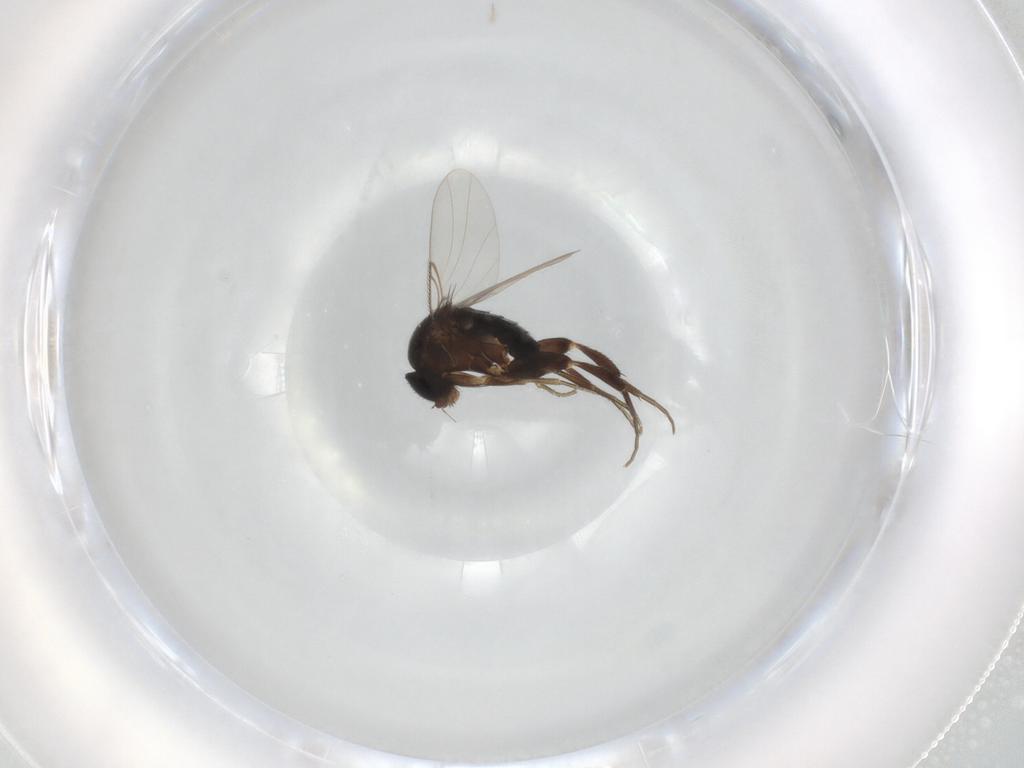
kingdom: Animalia
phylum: Arthropoda
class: Insecta
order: Diptera
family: Phoridae
